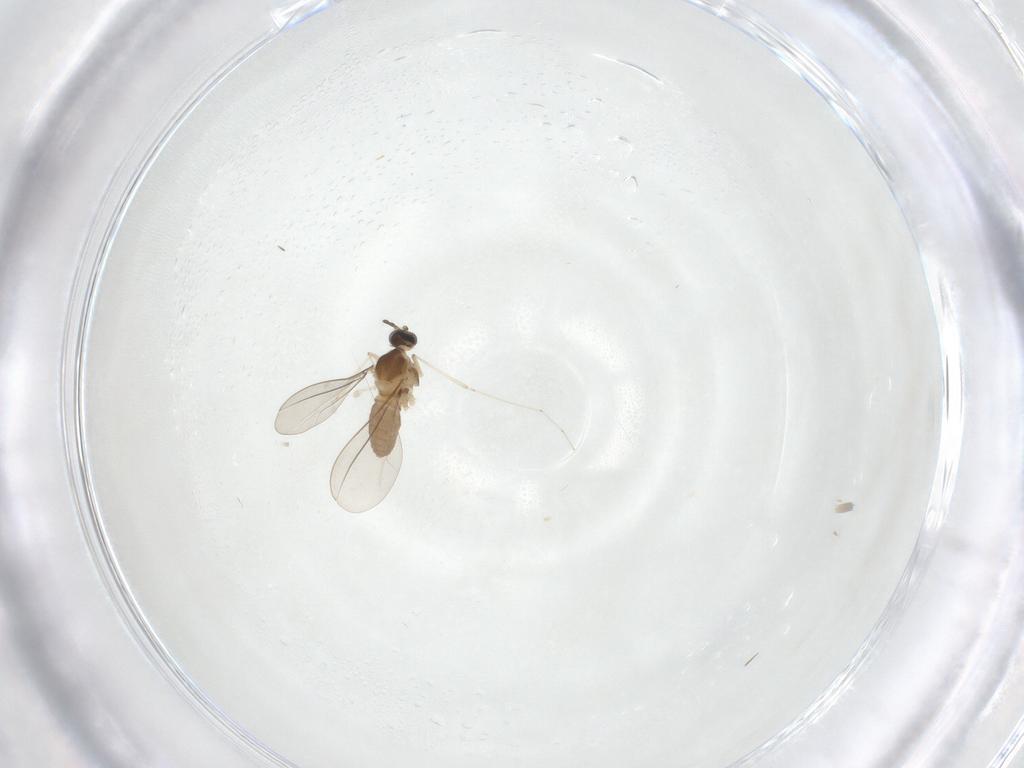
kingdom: Animalia
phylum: Arthropoda
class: Insecta
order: Diptera
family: Cecidomyiidae
